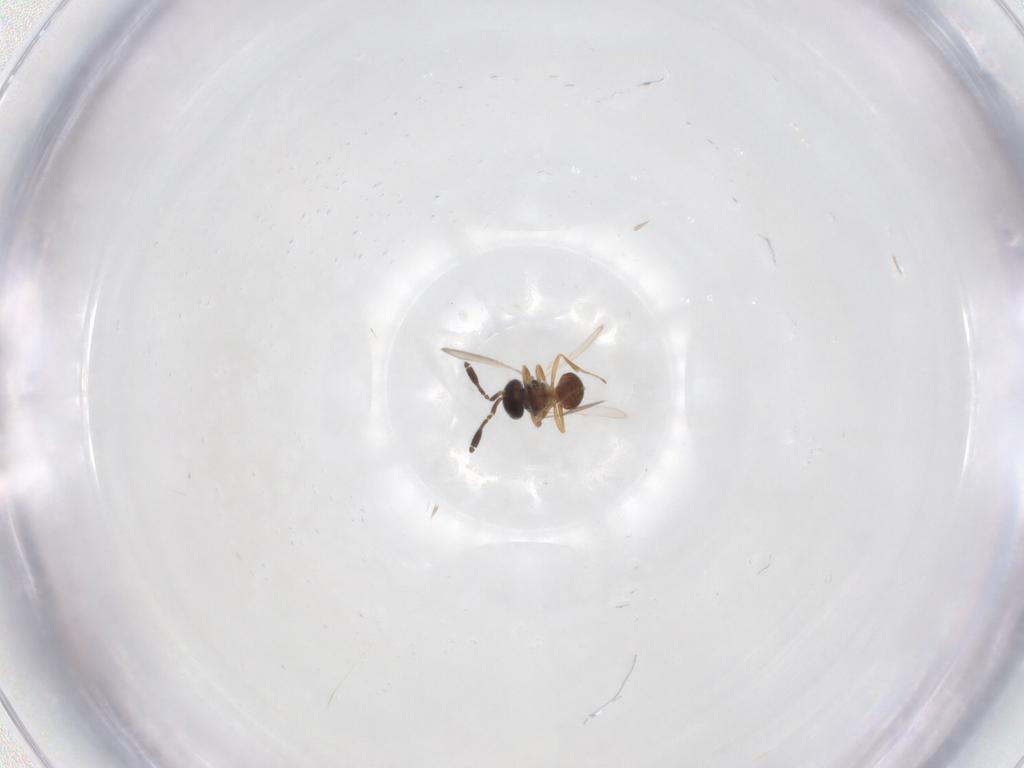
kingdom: Animalia
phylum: Arthropoda
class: Insecta
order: Hymenoptera
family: Scelionidae
